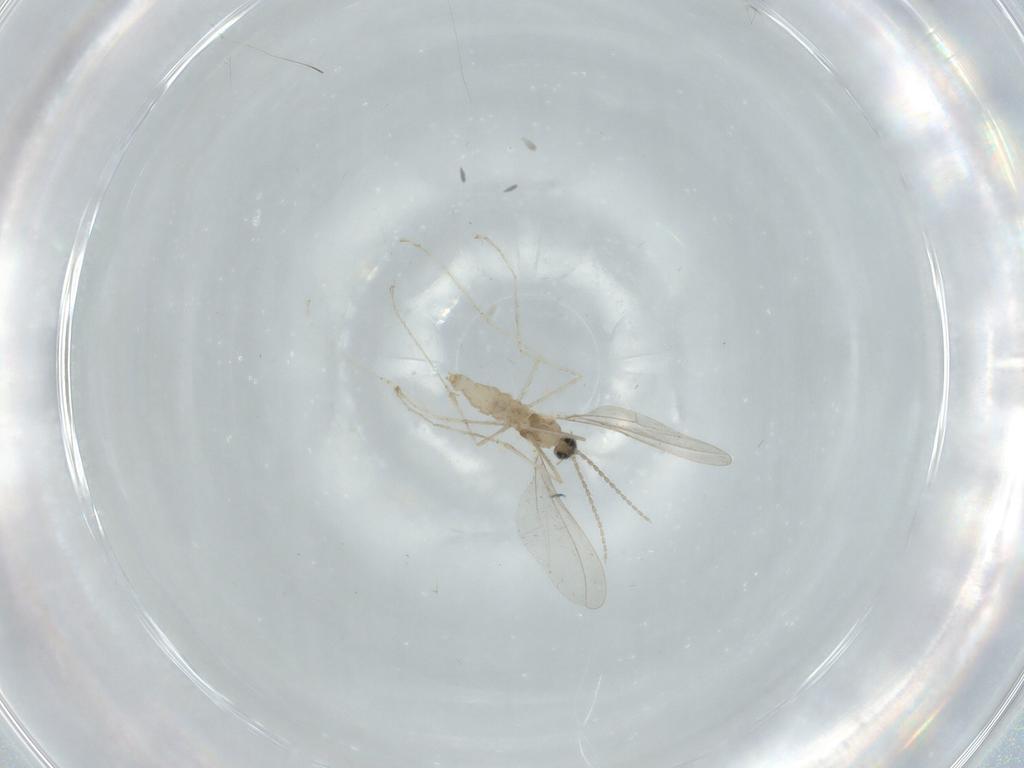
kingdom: Animalia
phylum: Arthropoda
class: Insecta
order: Diptera
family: Cecidomyiidae
